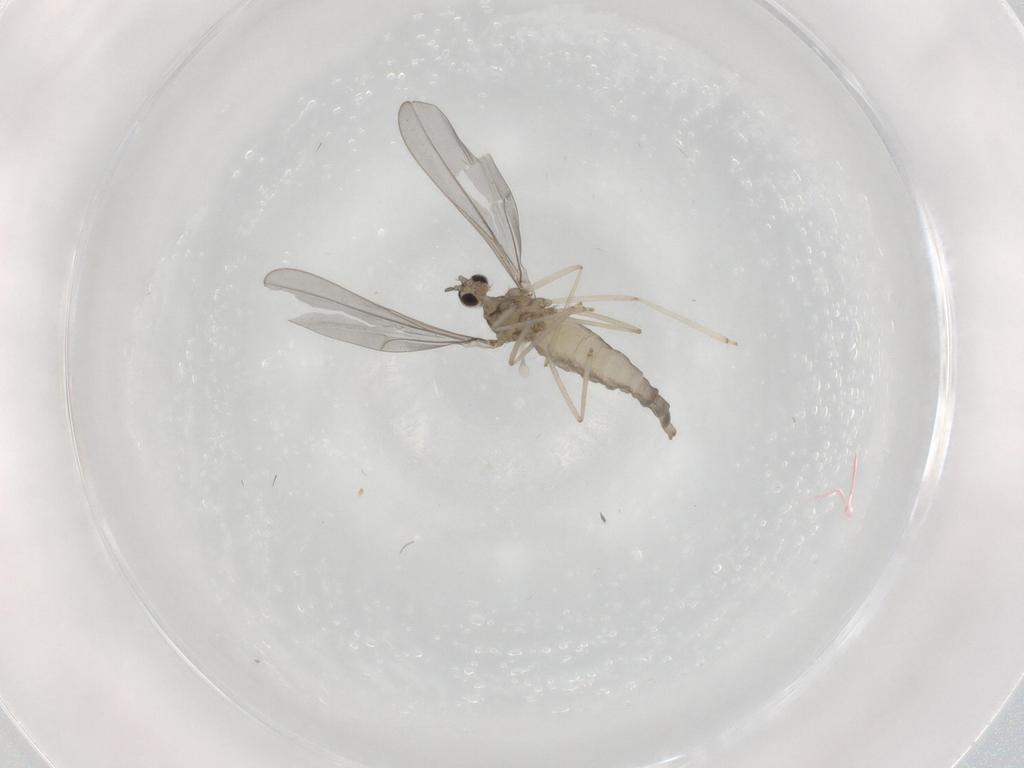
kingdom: Animalia
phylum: Arthropoda
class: Insecta
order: Diptera
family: Cecidomyiidae
